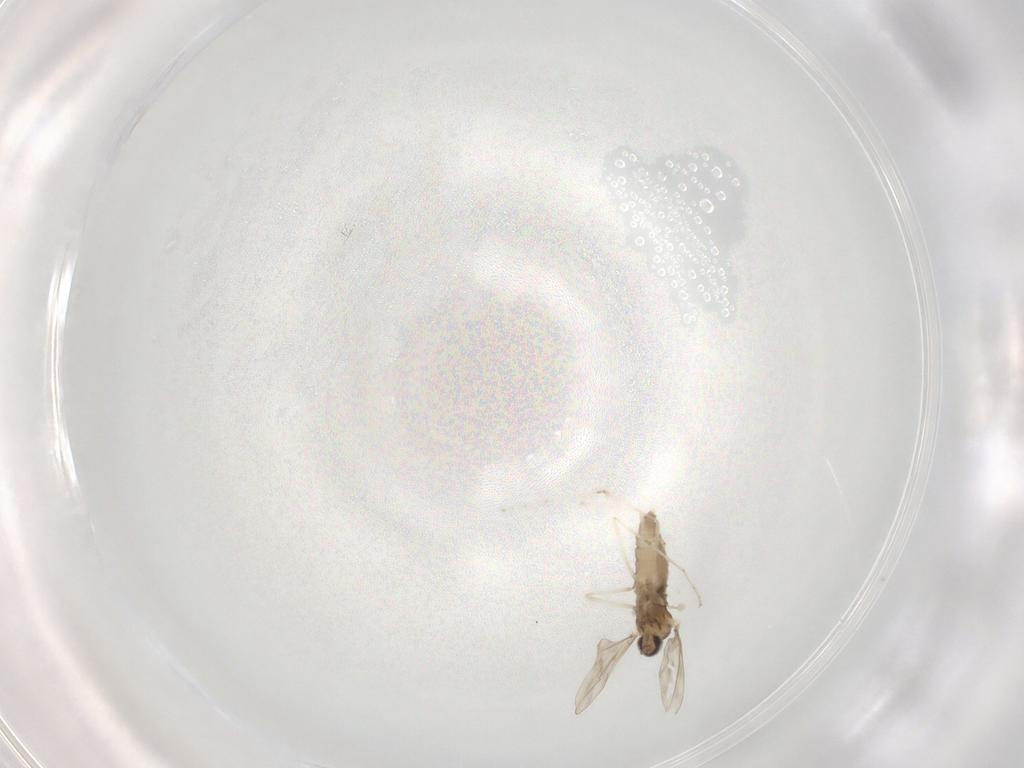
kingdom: Animalia
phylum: Arthropoda
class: Insecta
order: Diptera
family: Cecidomyiidae
